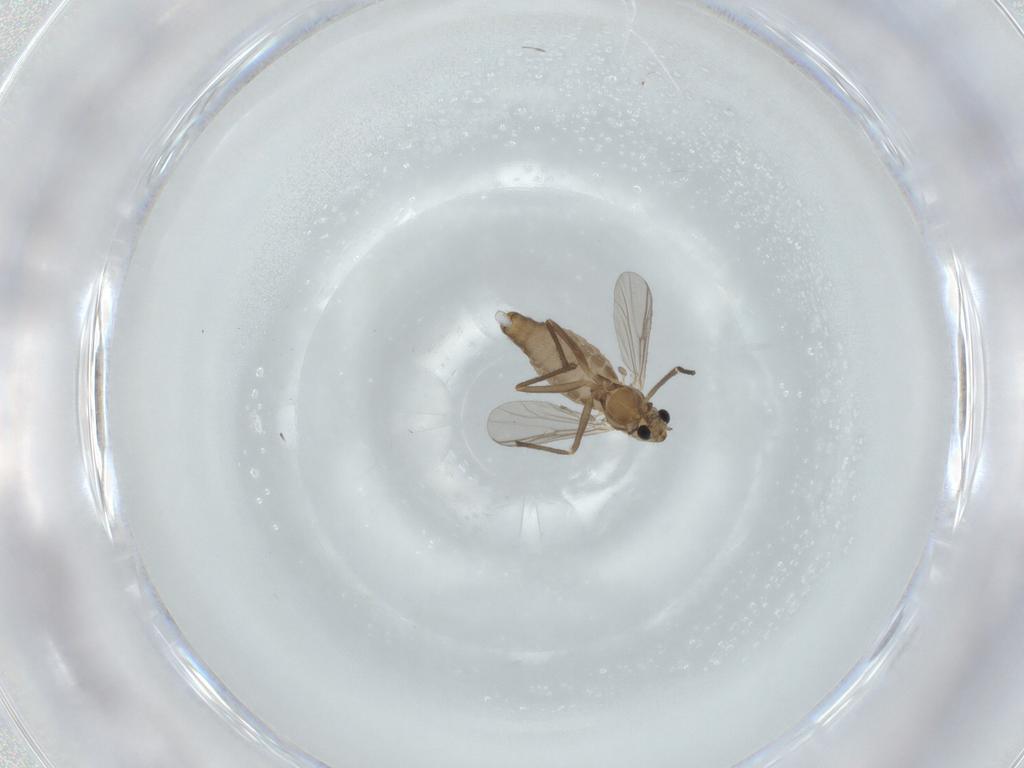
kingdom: Animalia
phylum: Arthropoda
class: Insecta
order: Diptera
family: Chironomidae
